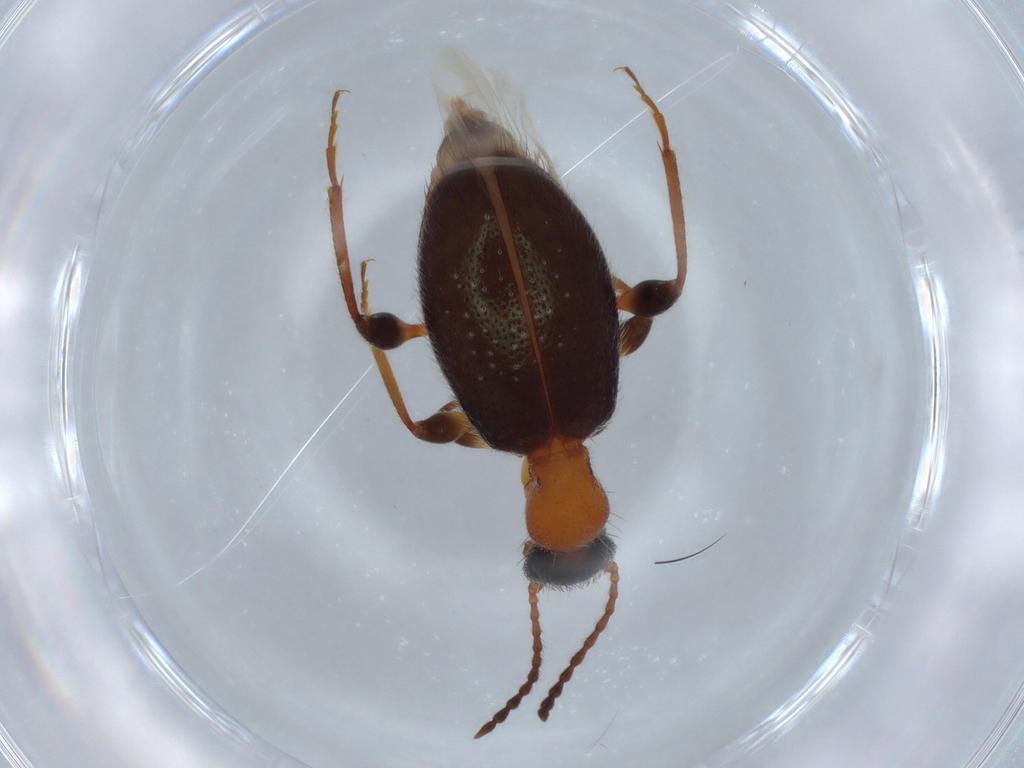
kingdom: Animalia
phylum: Arthropoda
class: Insecta
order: Coleoptera
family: Anthicidae
